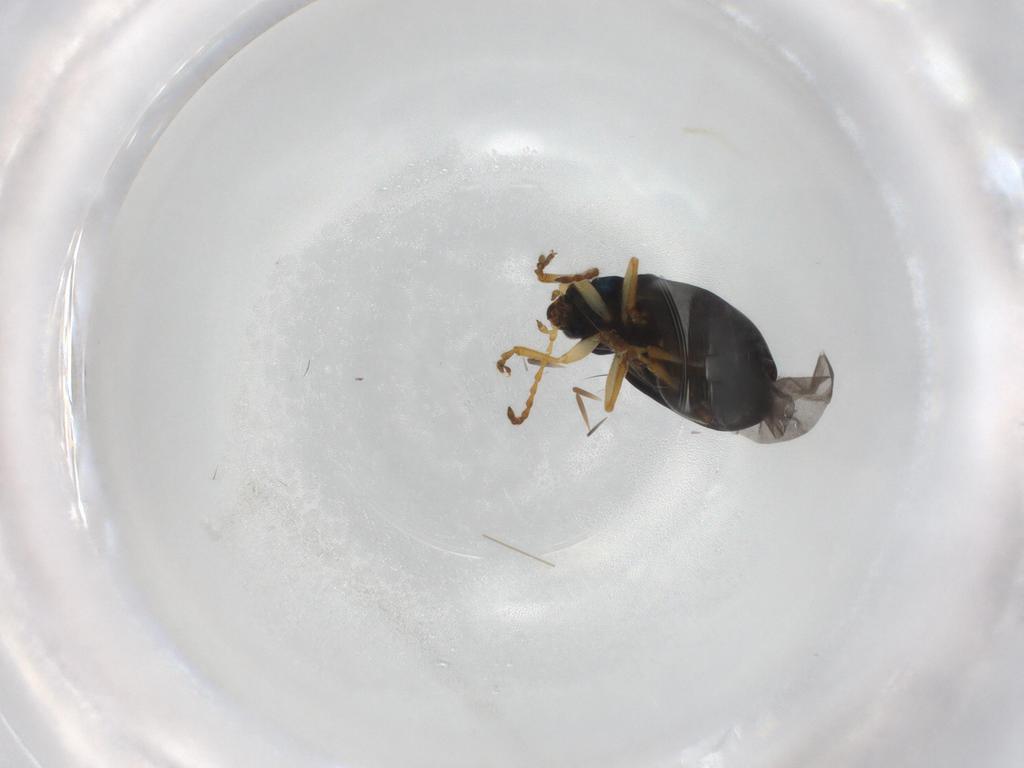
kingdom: Animalia
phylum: Arthropoda
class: Insecta
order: Coleoptera
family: Chrysomelidae
